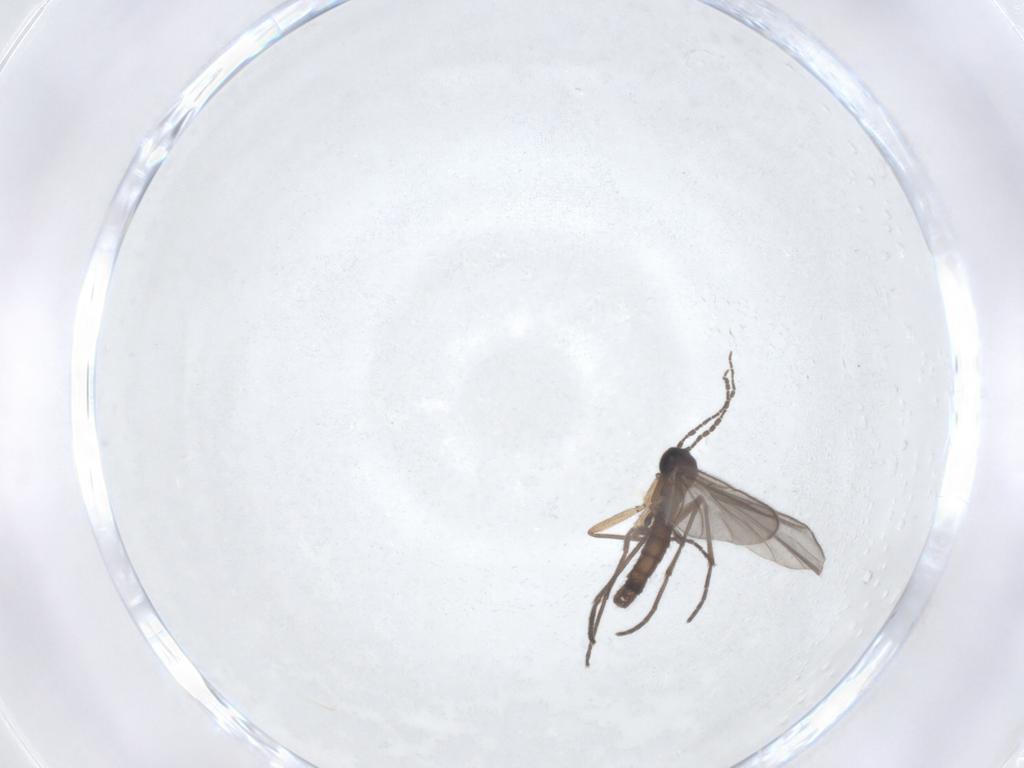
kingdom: Animalia
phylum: Arthropoda
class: Insecta
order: Diptera
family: Sciaridae
